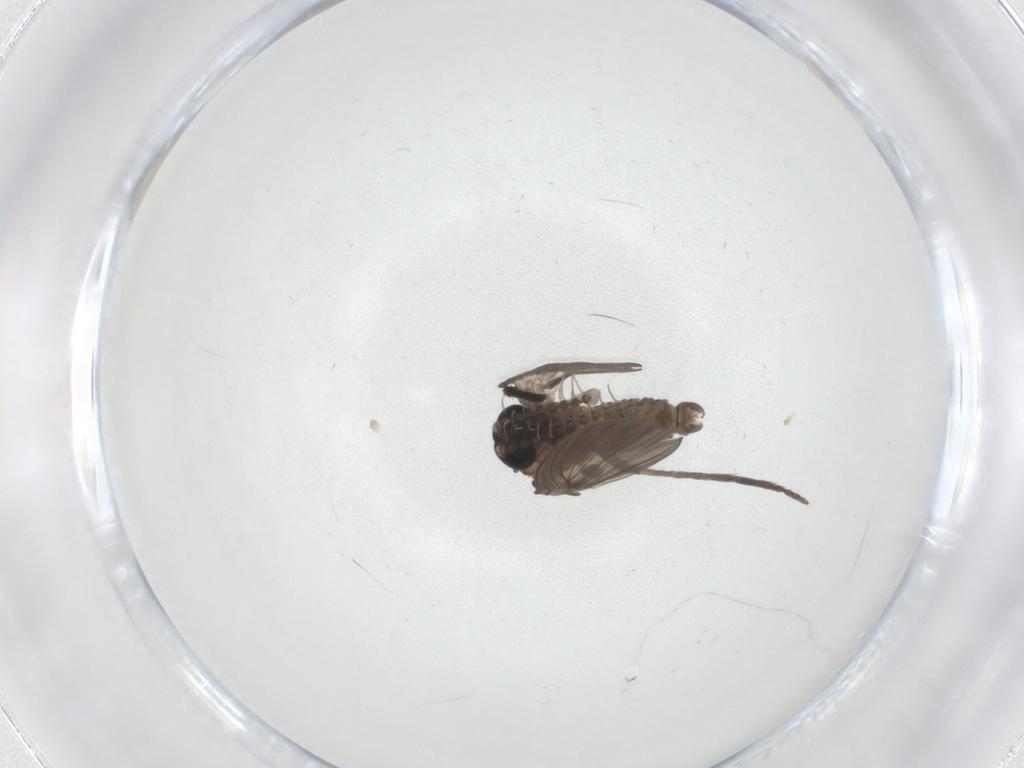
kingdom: Animalia
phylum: Arthropoda
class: Insecta
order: Diptera
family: Psychodidae
